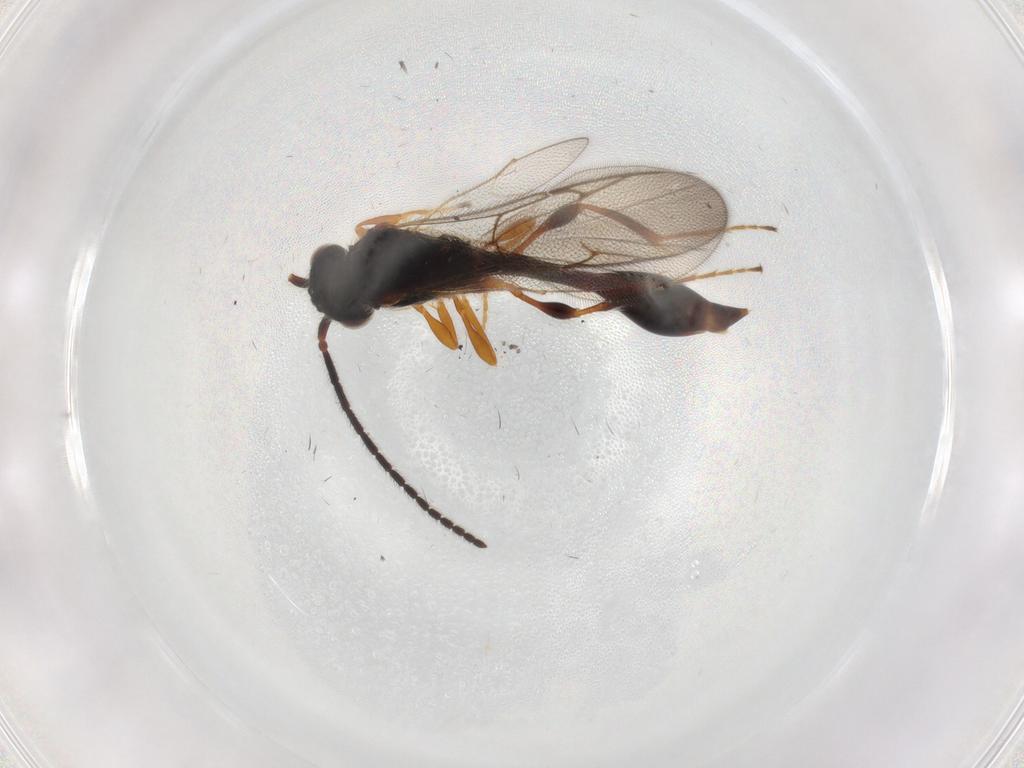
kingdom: Animalia
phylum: Arthropoda
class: Insecta
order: Hymenoptera
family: Diapriidae
